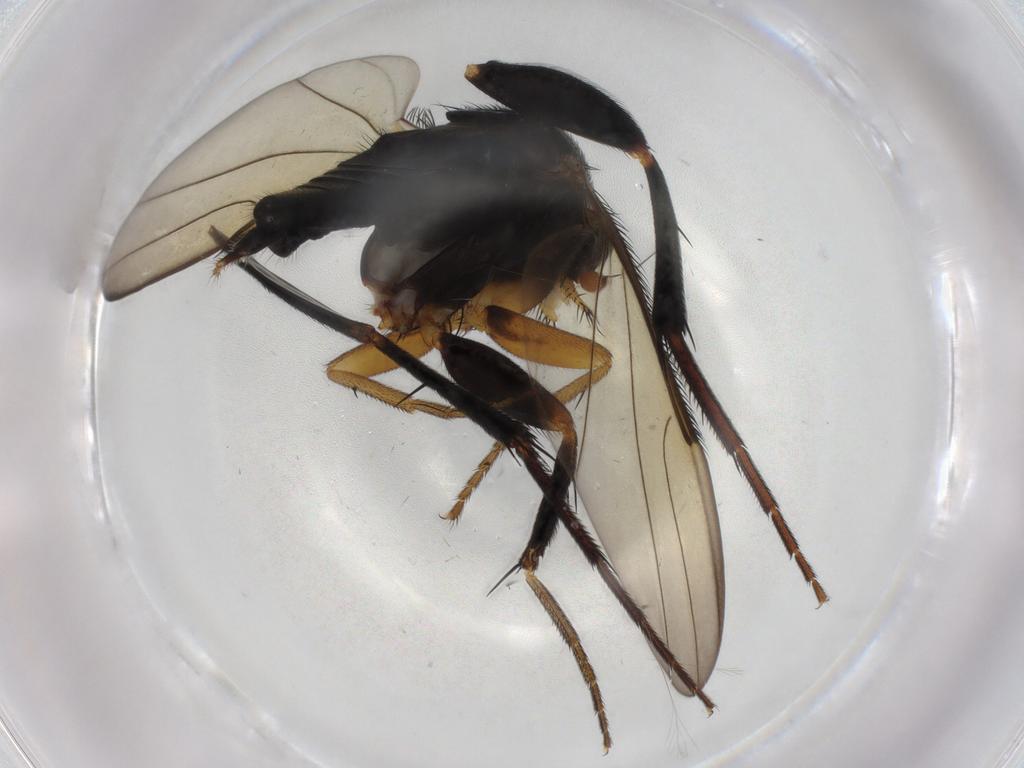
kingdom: Animalia
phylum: Arthropoda
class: Insecta
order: Diptera
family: Phoridae
